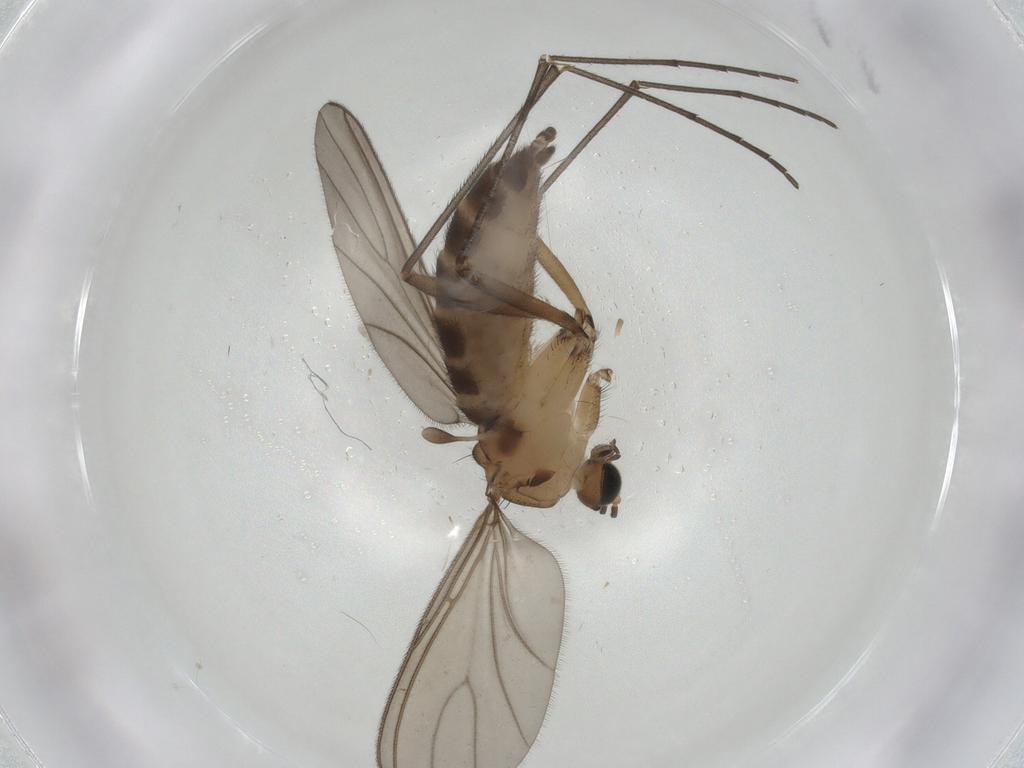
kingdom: Animalia
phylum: Arthropoda
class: Insecta
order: Diptera
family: Sciaridae
